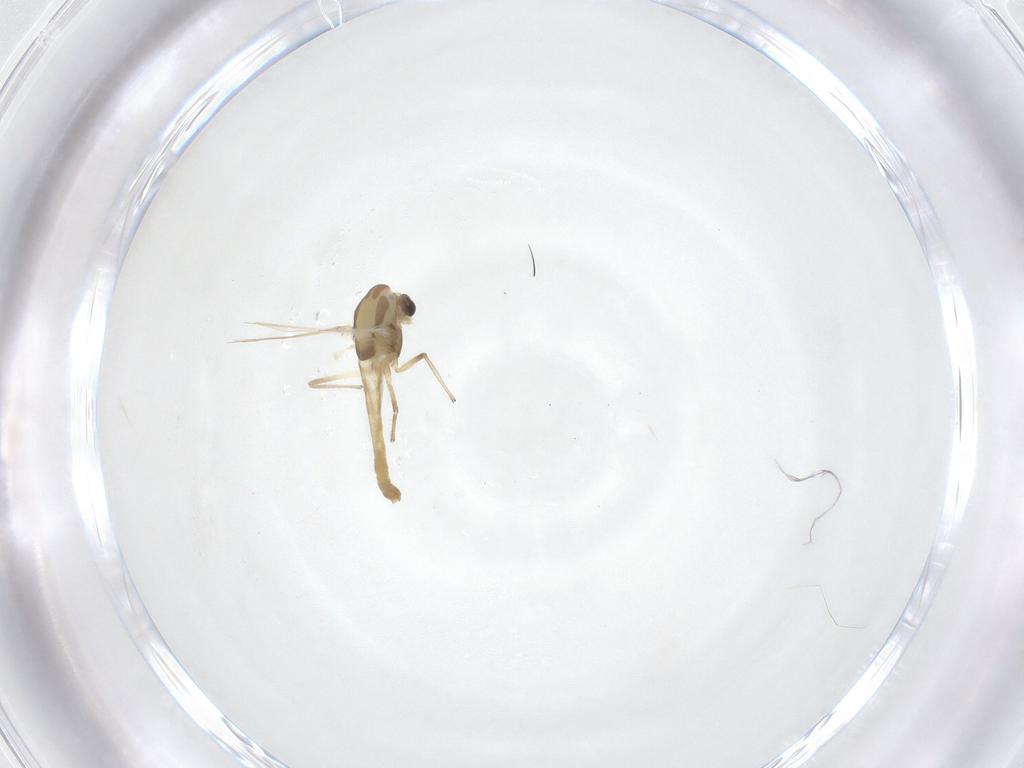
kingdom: Animalia
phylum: Arthropoda
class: Insecta
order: Diptera
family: Chironomidae
